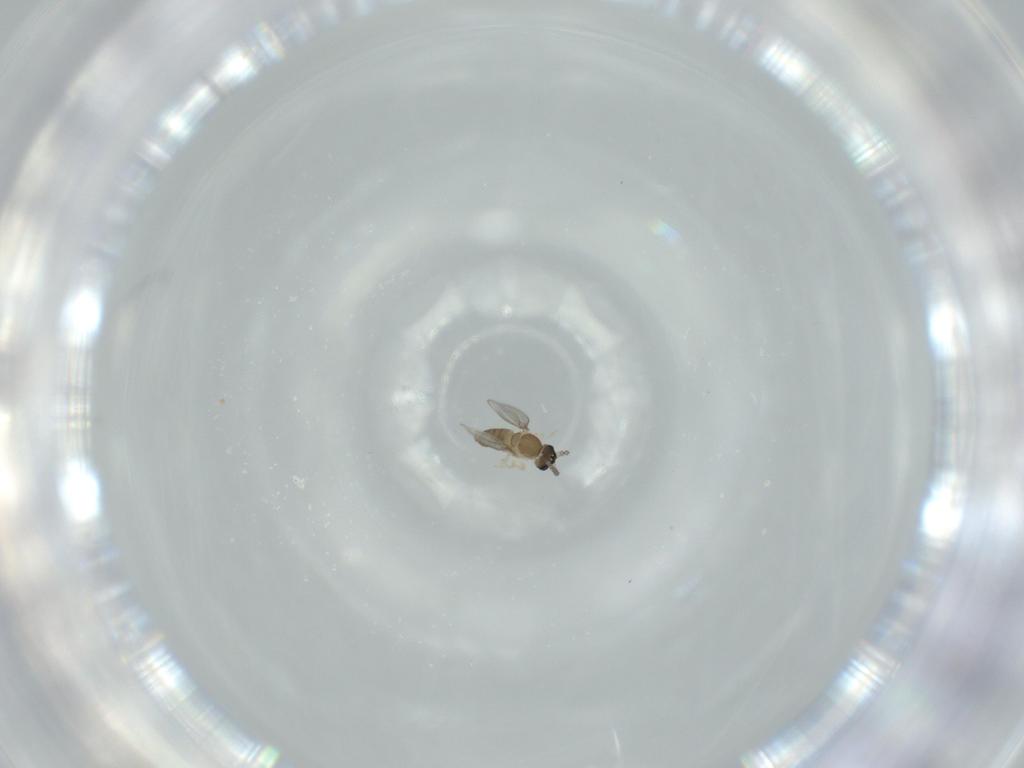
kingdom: Animalia
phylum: Arthropoda
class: Insecta
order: Diptera
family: Cecidomyiidae
